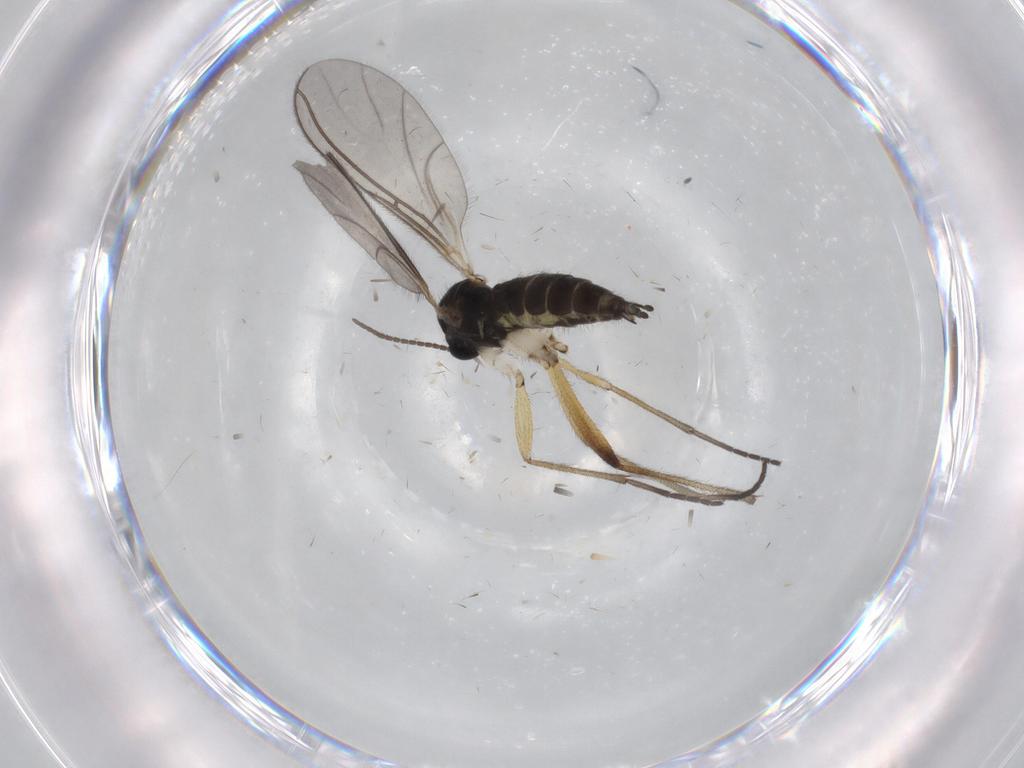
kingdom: Animalia
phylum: Arthropoda
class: Insecta
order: Diptera
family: Sciaridae
